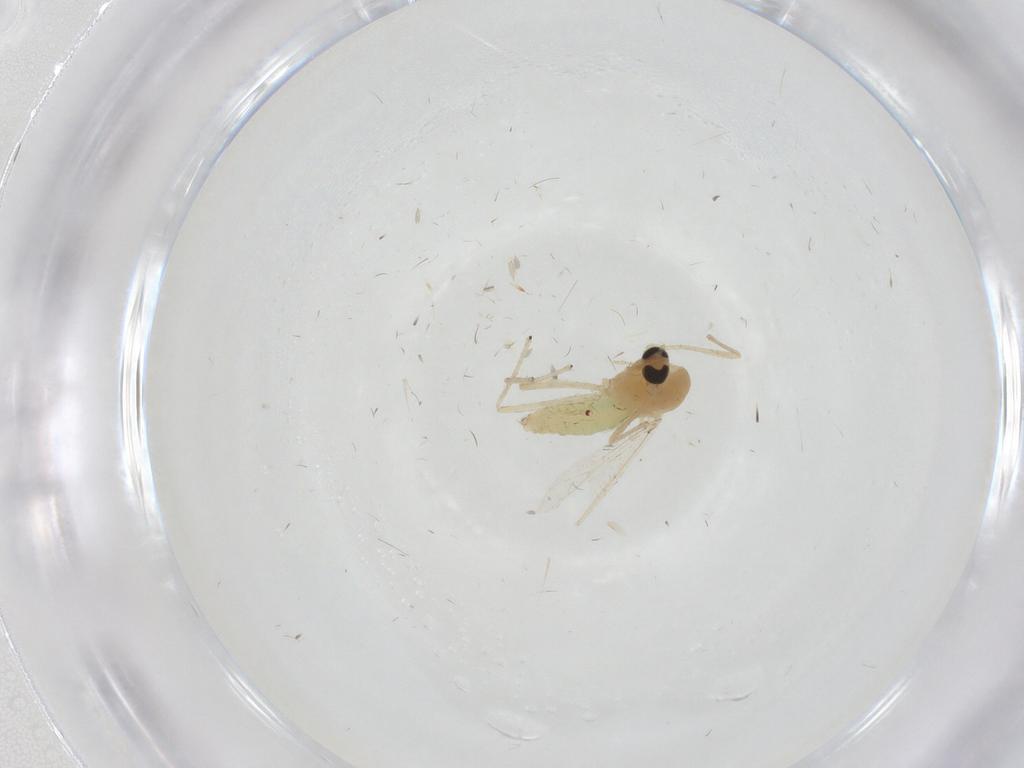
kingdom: Animalia
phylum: Arthropoda
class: Insecta
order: Diptera
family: Chironomidae
